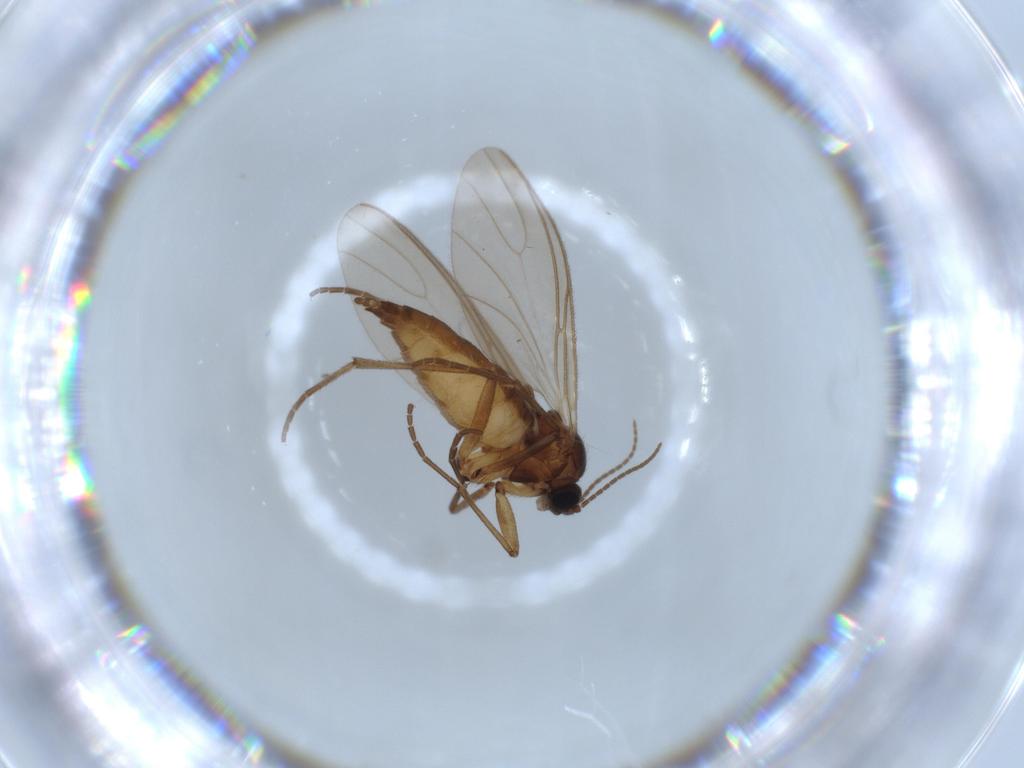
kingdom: Animalia
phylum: Arthropoda
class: Insecta
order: Diptera
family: Sciaridae
